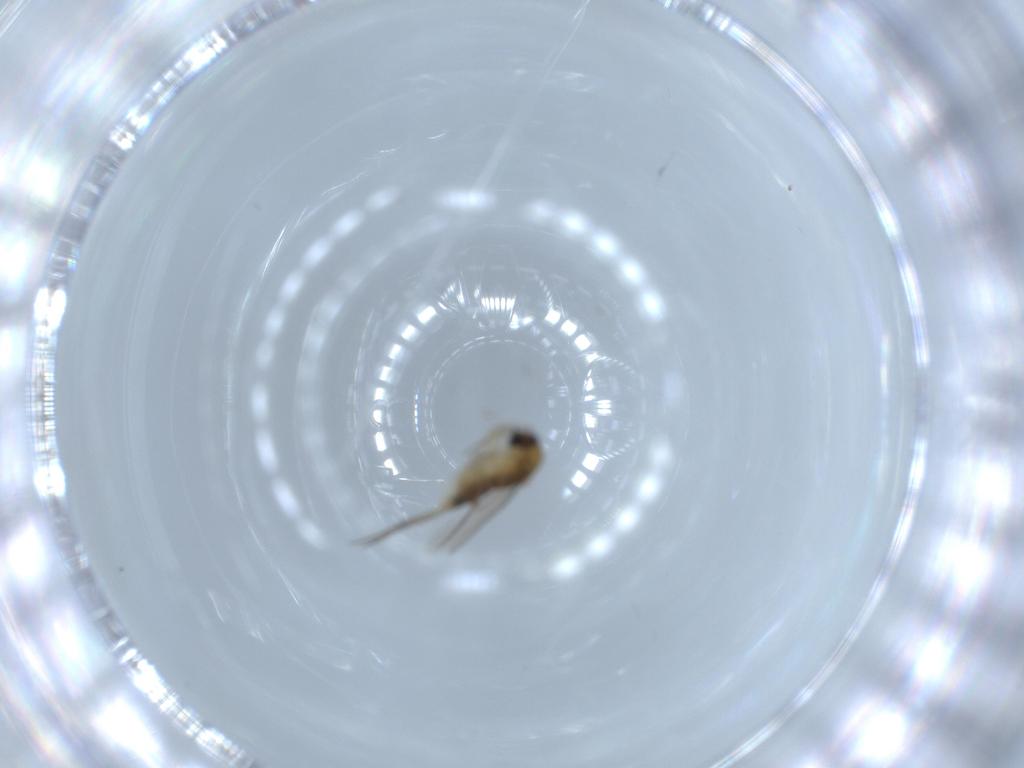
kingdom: Animalia
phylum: Arthropoda
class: Insecta
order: Diptera
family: Phoridae
